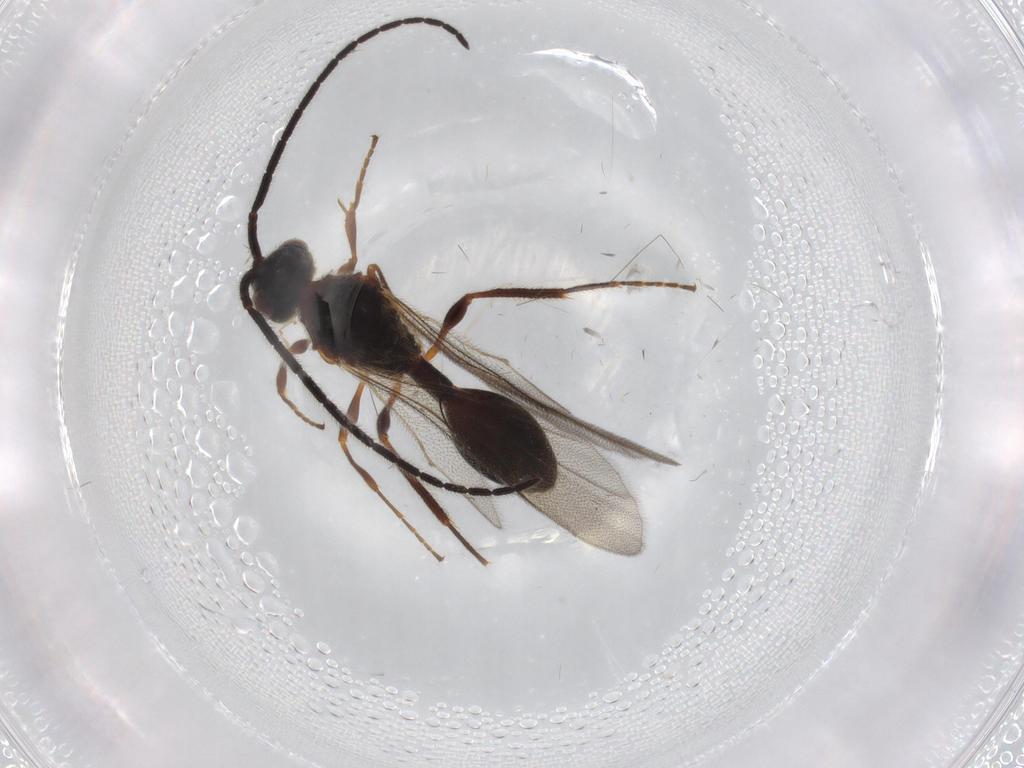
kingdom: Animalia
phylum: Arthropoda
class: Insecta
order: Hymenoptera
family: Diapriidae
